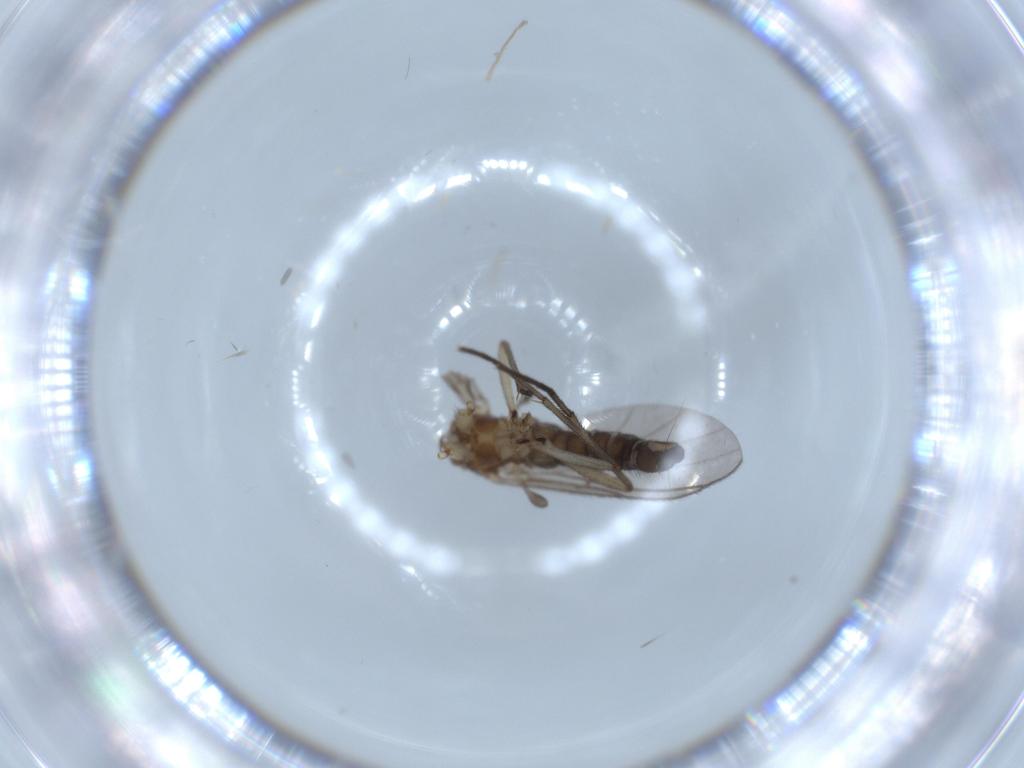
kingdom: Animalia
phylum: Arthropoda
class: Insecta
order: Diptera
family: Sciaridae
